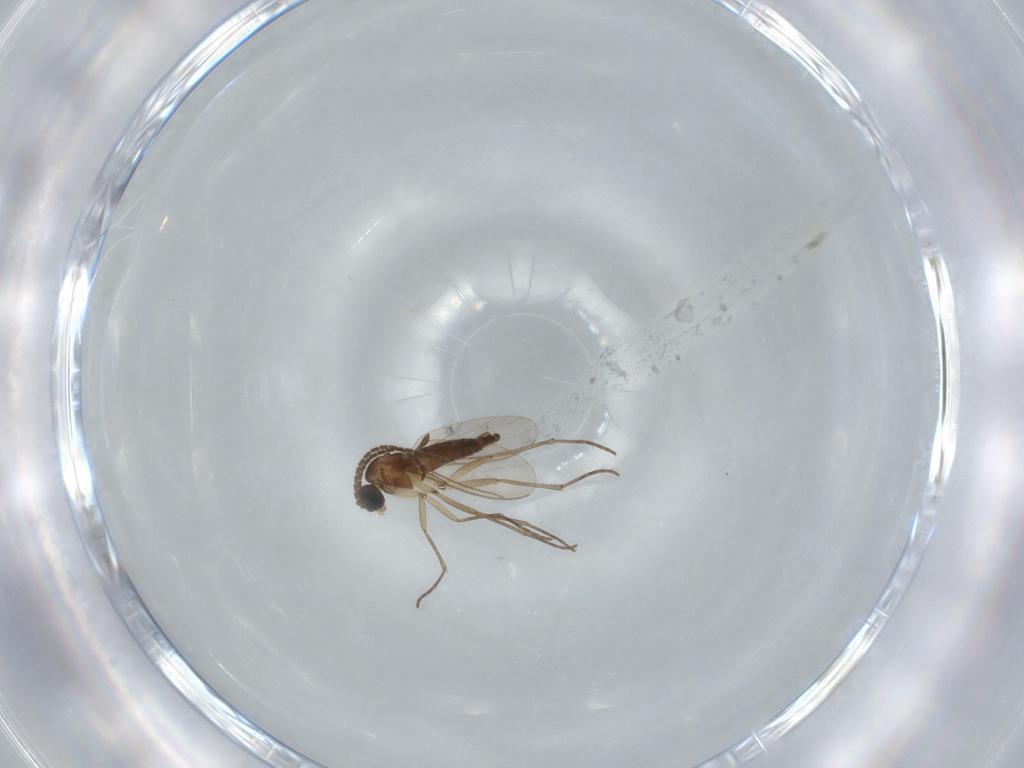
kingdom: Animalia
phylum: Arthropoda
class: Insecta
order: Diptera
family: Sciaridae
